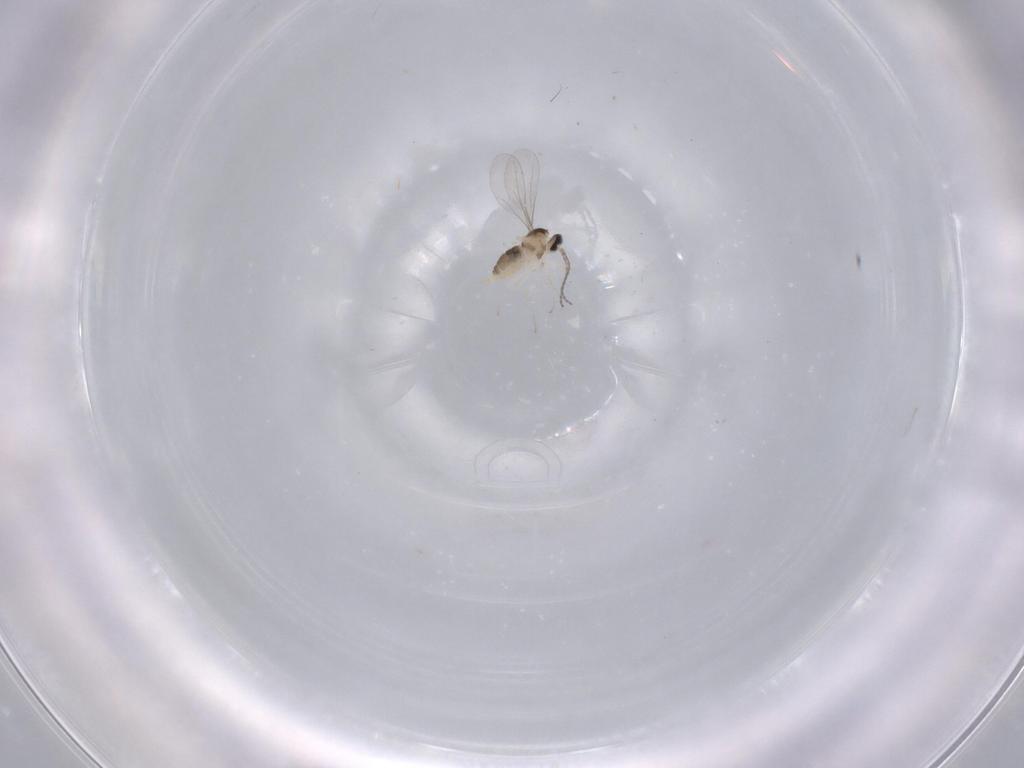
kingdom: Animalia
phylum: Arthropoda
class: Insecta
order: Diptera
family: Cecidomyiidae
